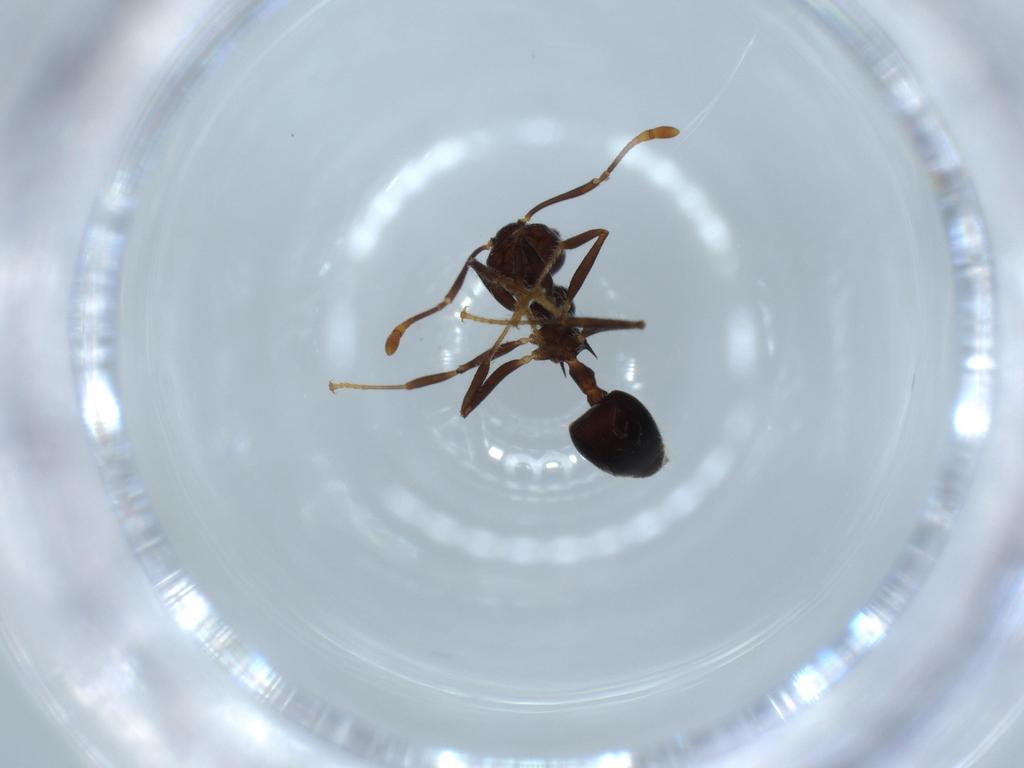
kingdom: Animalia
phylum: Arthropoda
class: Insecta
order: Hymenoptera
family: Formicidae
